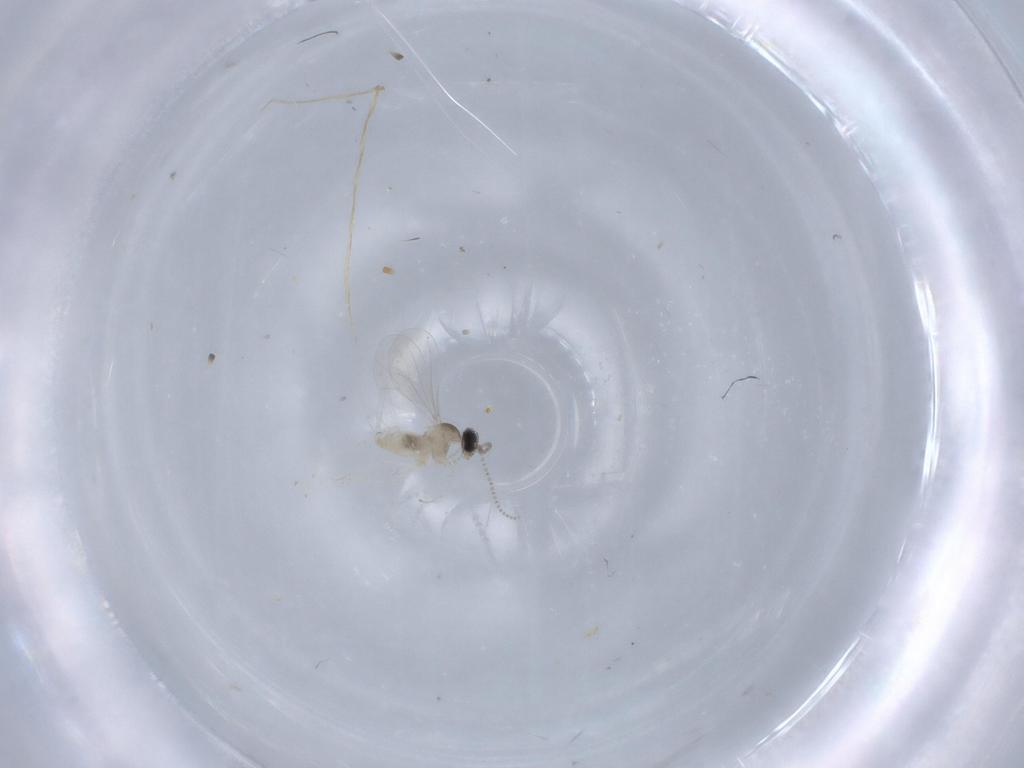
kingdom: Animalia
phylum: Arthropoda
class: Insecta
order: Diptera
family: Cecidomyiidae
